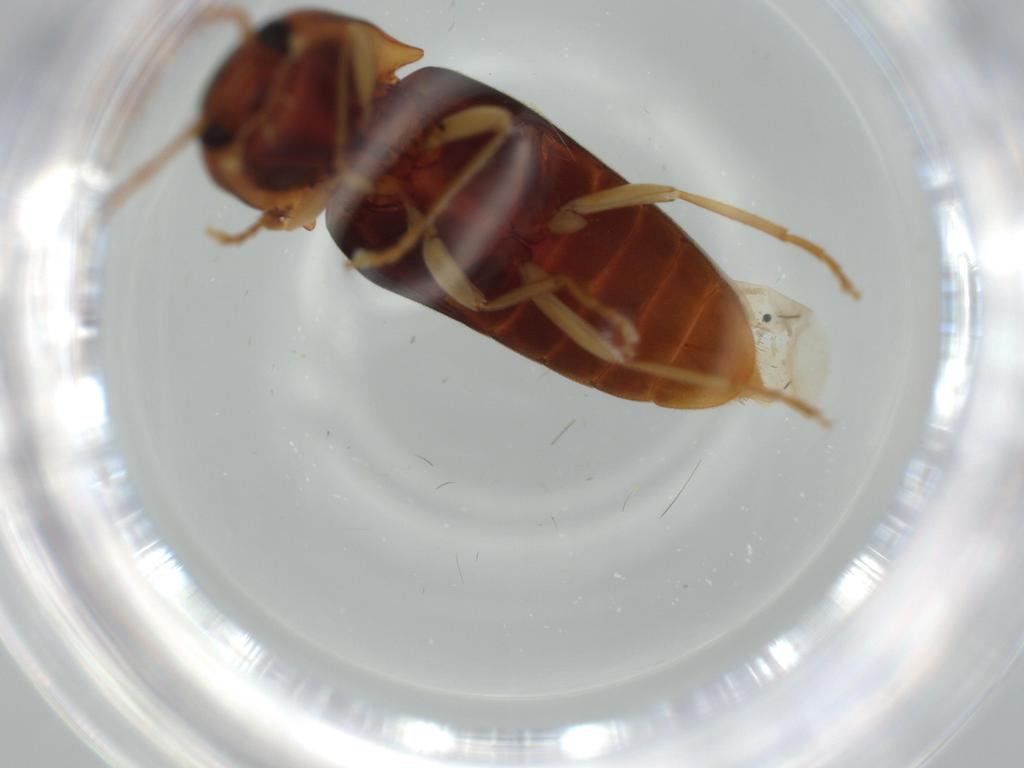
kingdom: Animalia
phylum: Arthropoda
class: Insecta
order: Coleoptera
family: Elateridae
